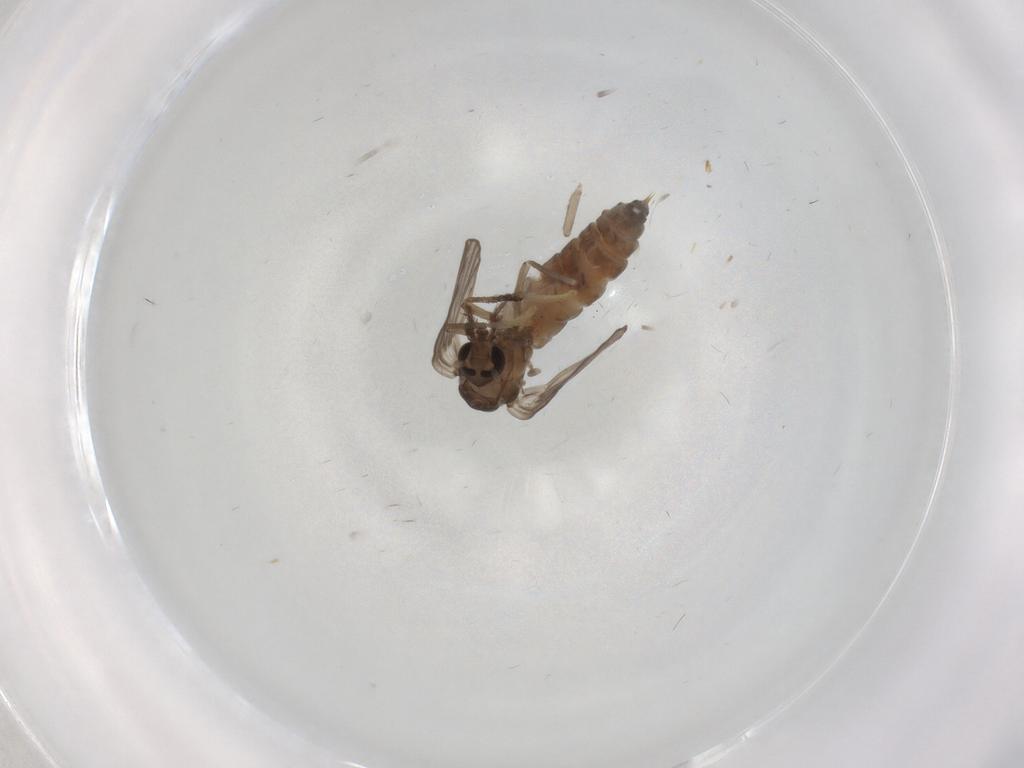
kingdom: Animalia
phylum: Arthropoda
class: Insecta
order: Diptera
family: Psychodidae
